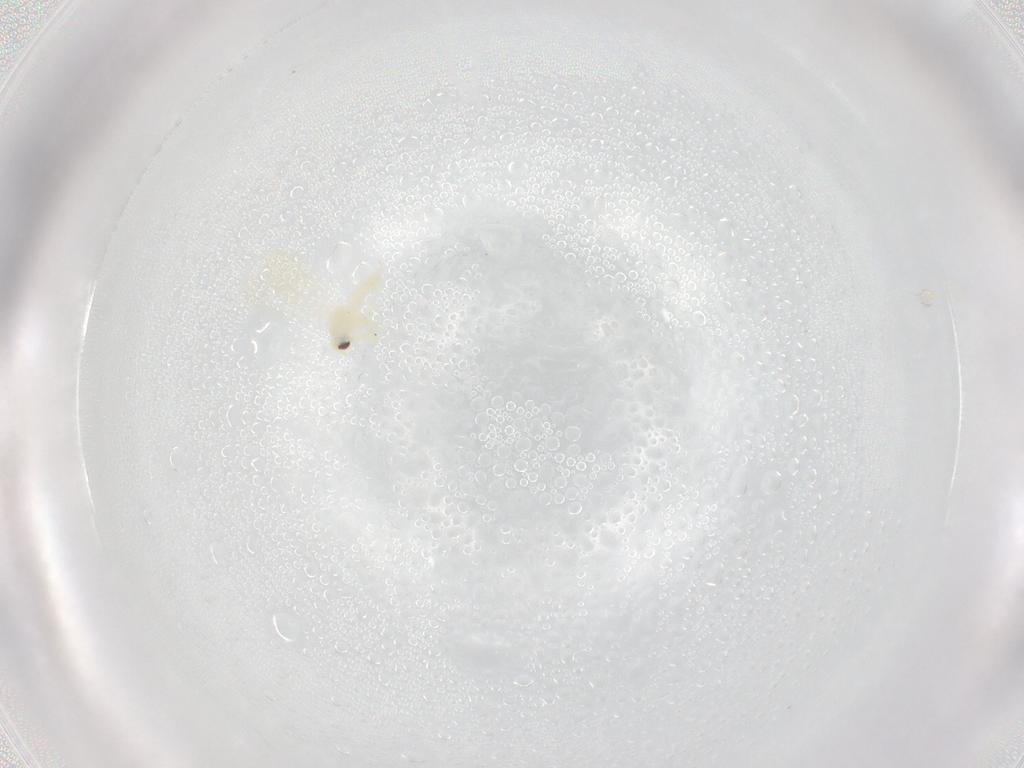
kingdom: Animalia
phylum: Arthropoda
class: Insecta
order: Hemiptera
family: Aleyrodidae
